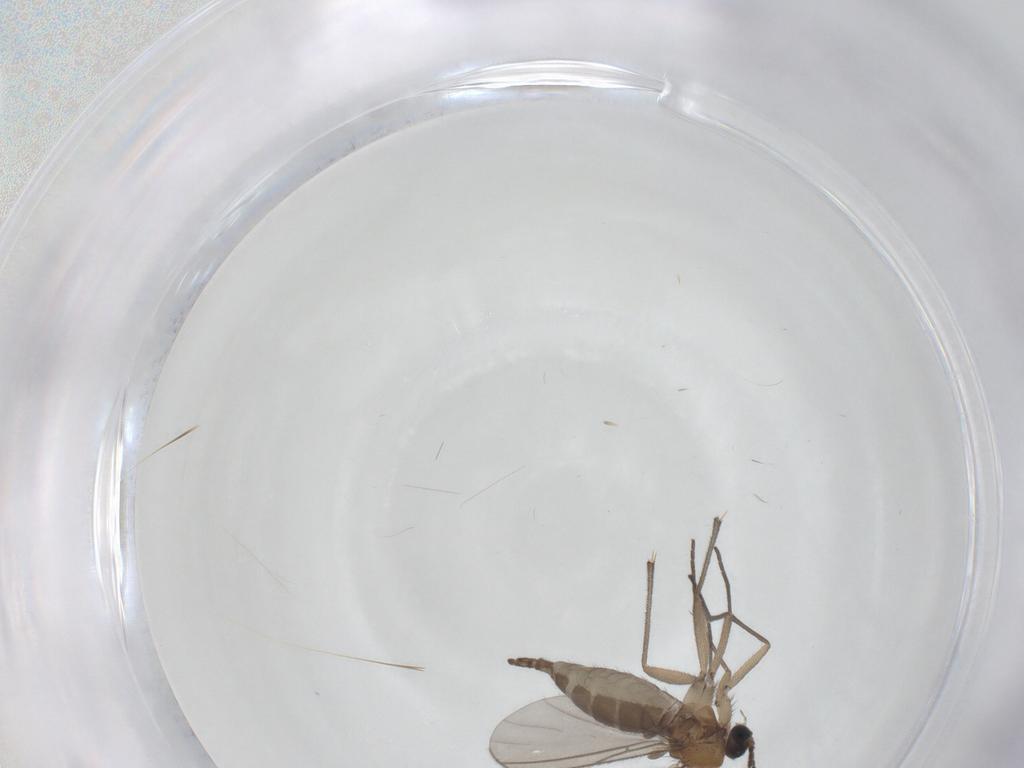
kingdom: Animalia
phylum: Arthropoda
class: Insecta
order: Diptera
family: Sciaridae
